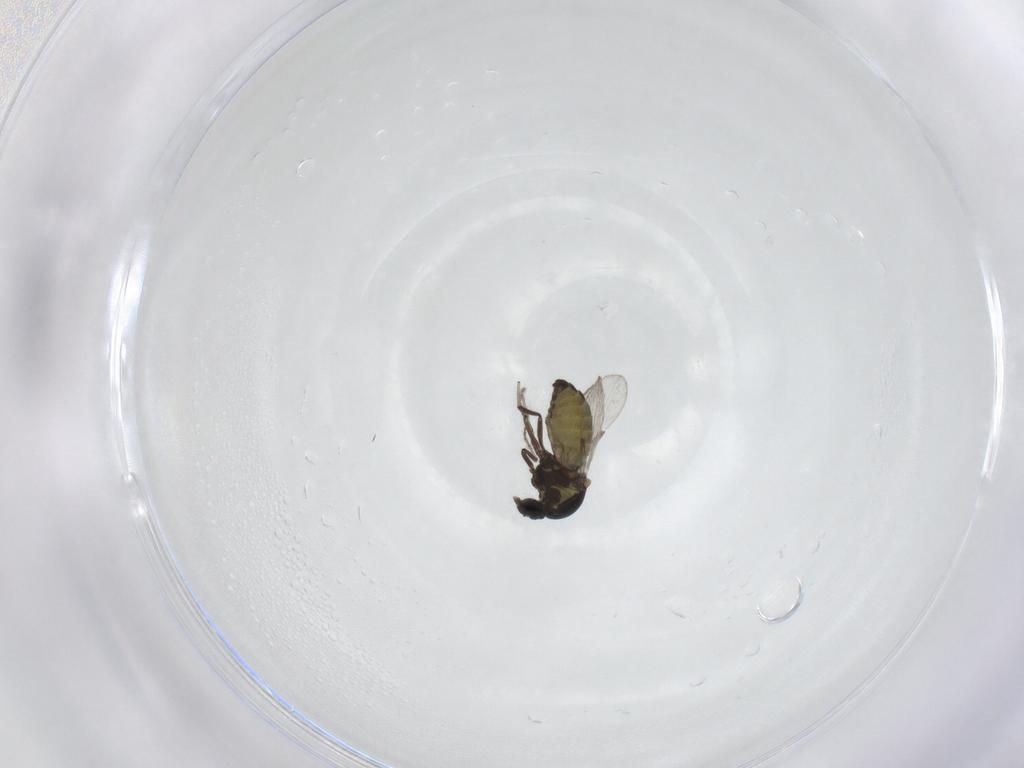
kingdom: Animalia
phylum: Arthropoda
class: Insecta
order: Diptera
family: Ceratopogonidae
